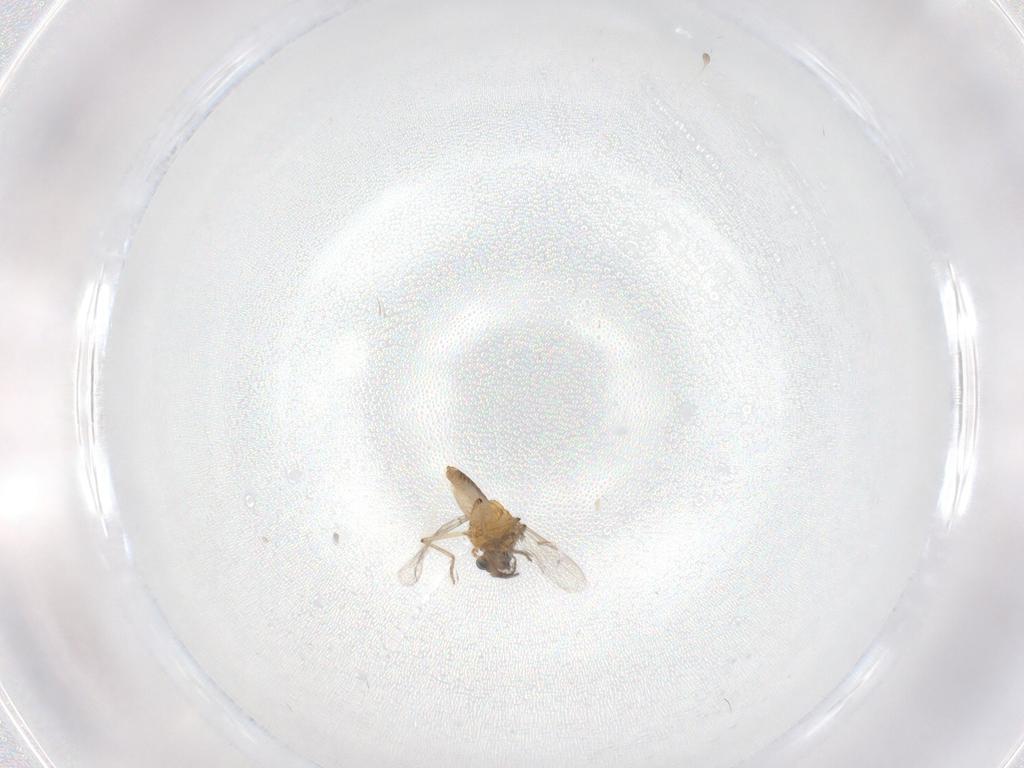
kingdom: Animalia
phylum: Arthropoda
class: Insecta
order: Diptera
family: Ceratopogonidae
